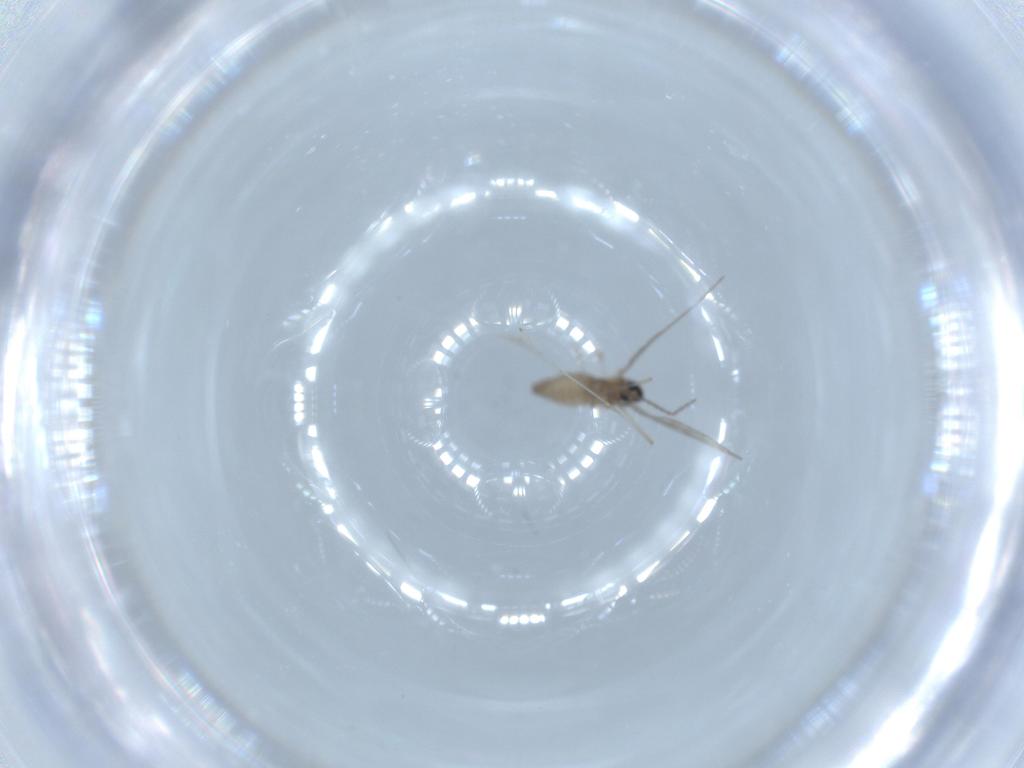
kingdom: Animalia
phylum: Arthropoda
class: Insecta
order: Diptera
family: Cecidomyiidae
